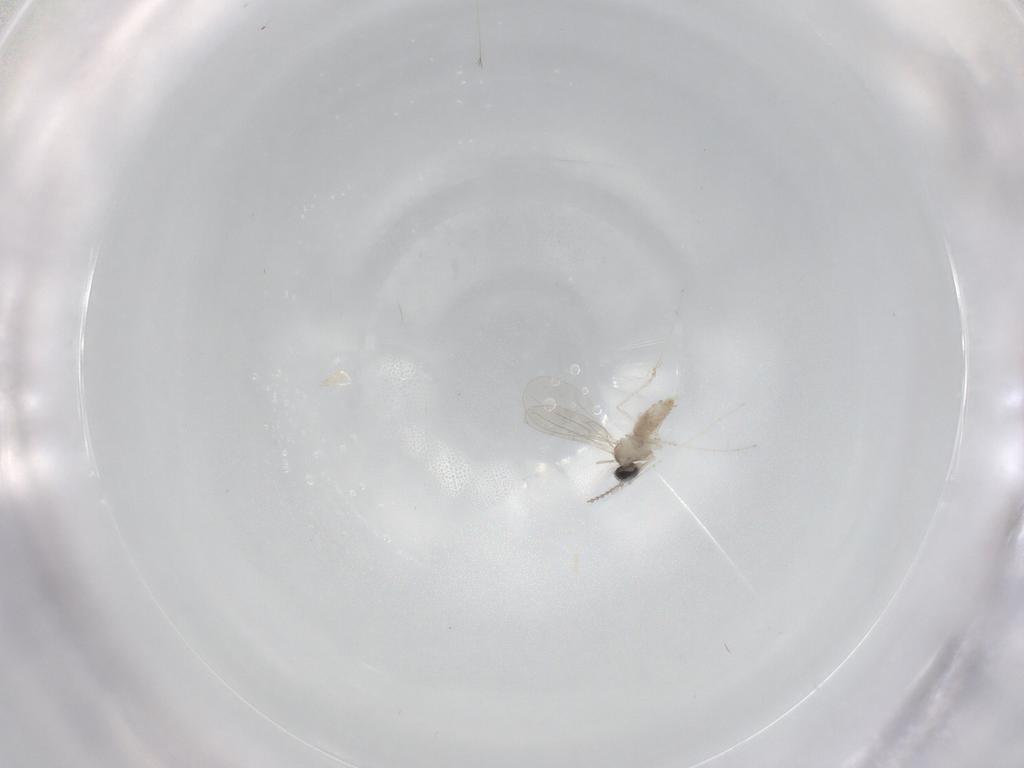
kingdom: Animalia
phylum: Arthropoda
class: Insecta
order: Diptera
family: Cecidomyiidae
